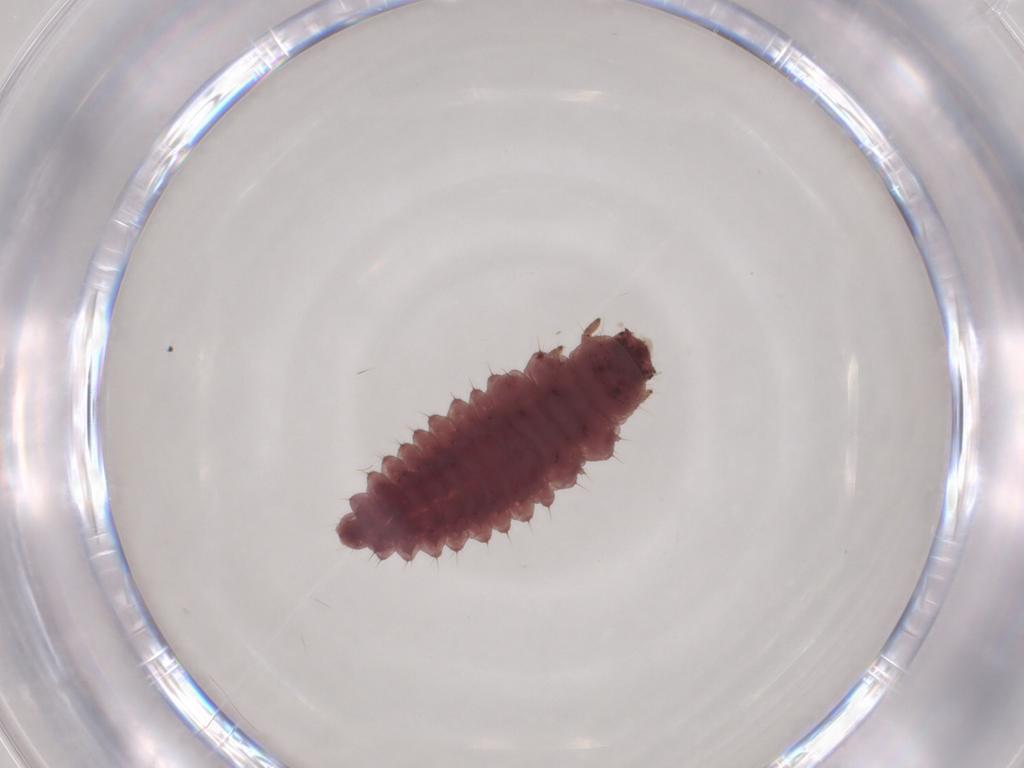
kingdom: Animalia
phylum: Arthropoda
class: Insecta
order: Coleoptera
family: Coccinellidae
